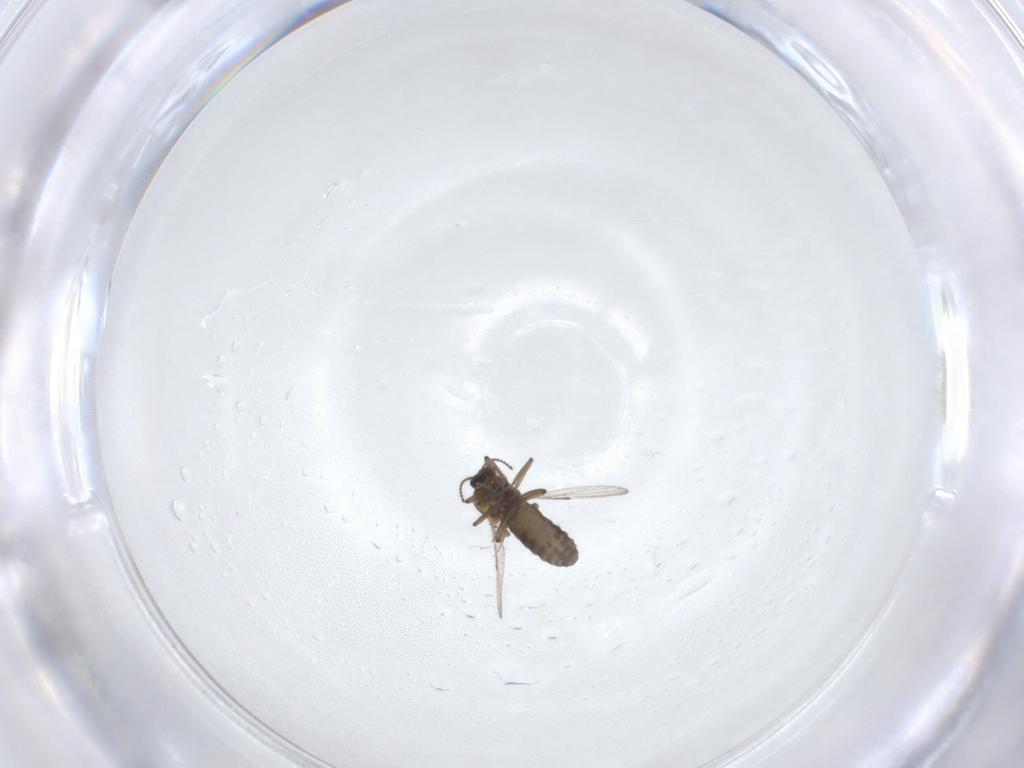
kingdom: Animalia
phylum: Arthropoda
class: Insecta
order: Diptera
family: Ceratopogonidae
